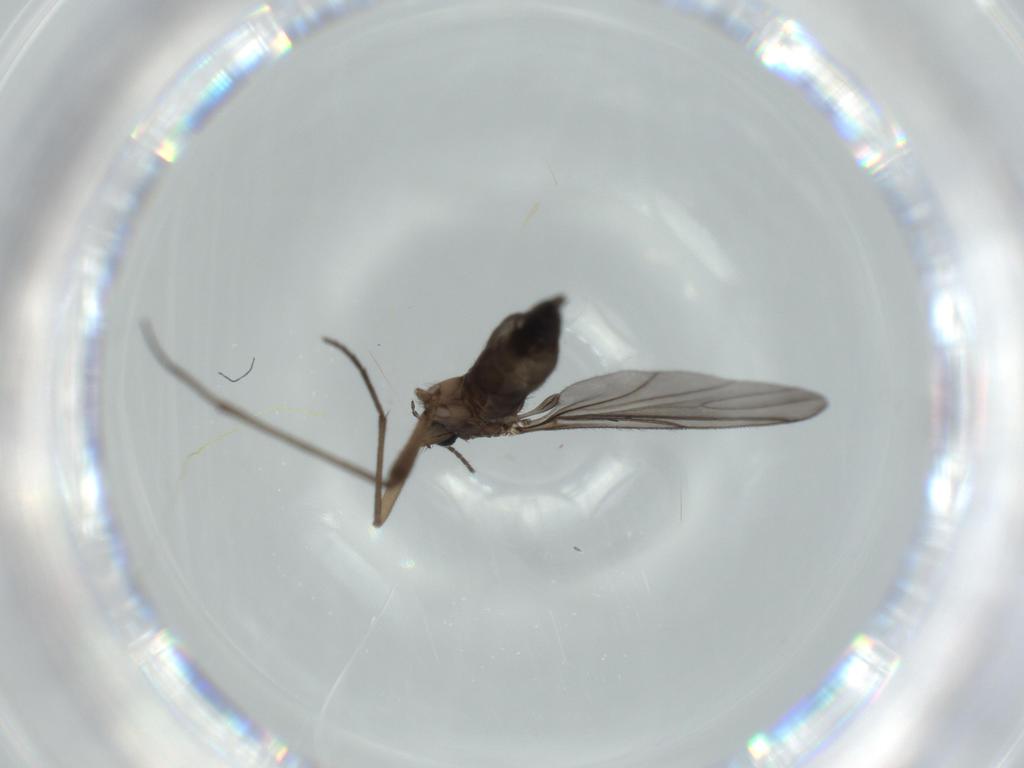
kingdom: Animalia
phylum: Arthropoda
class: Insecta
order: Diptera
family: Sciaridae
